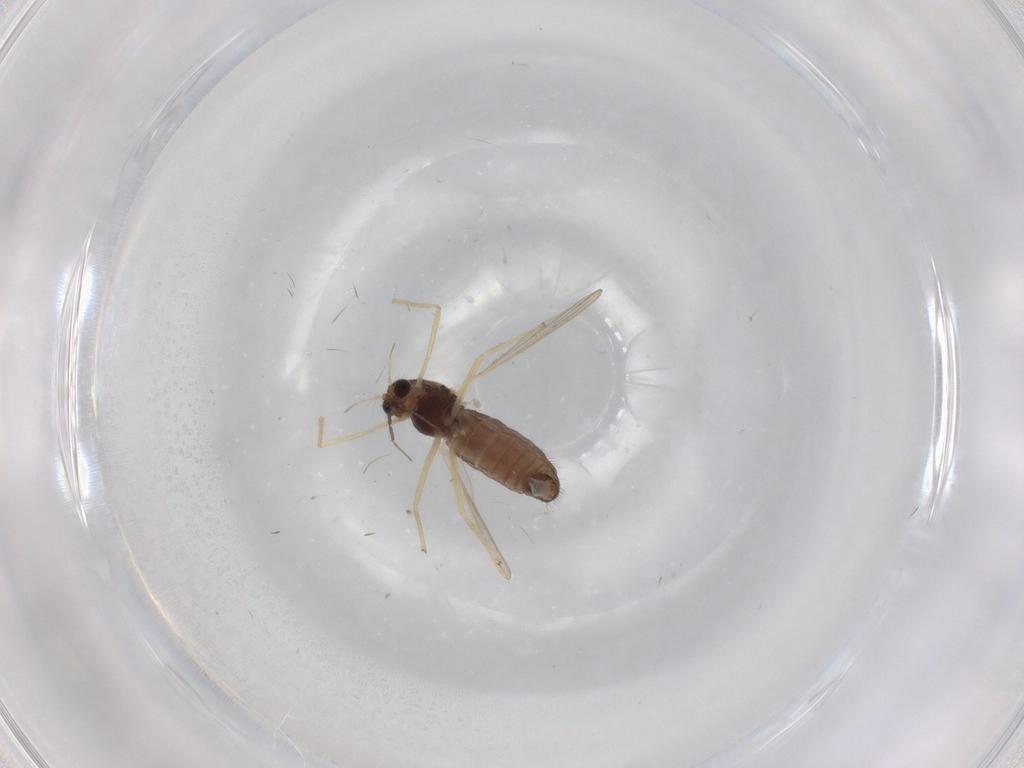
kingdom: Animalia
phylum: Arthropoda
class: Insecta
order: Diptera
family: Chironomidae
